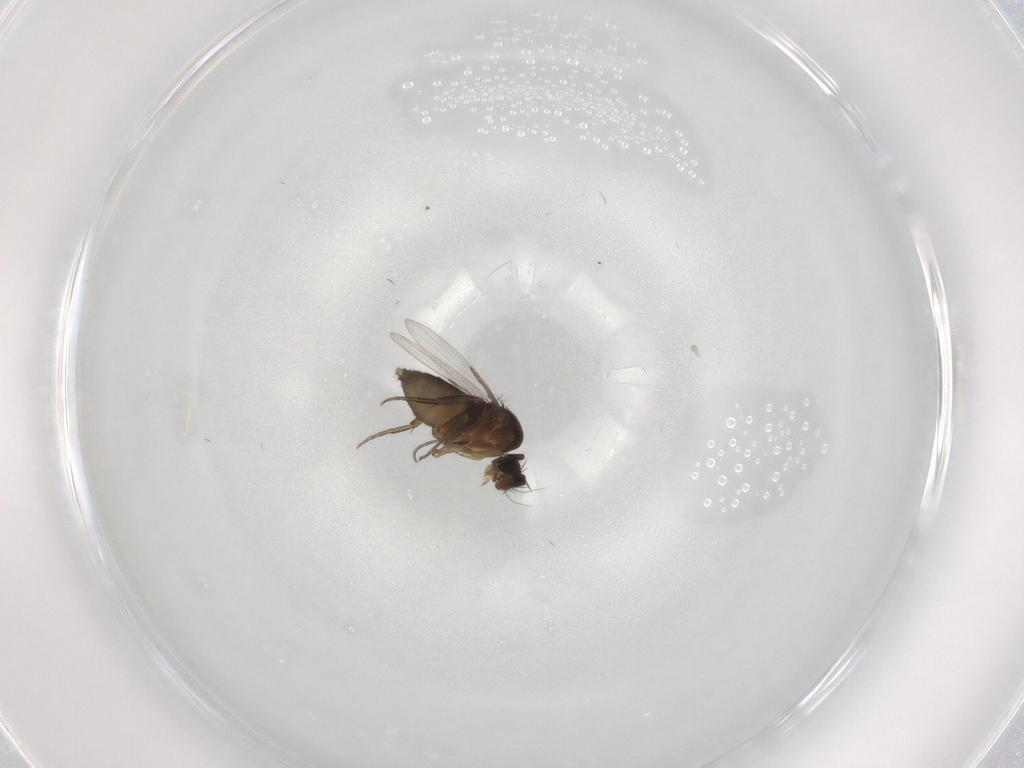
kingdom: Animalia
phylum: Arthropoda
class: Insecta
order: Diptera
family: Phoridae
